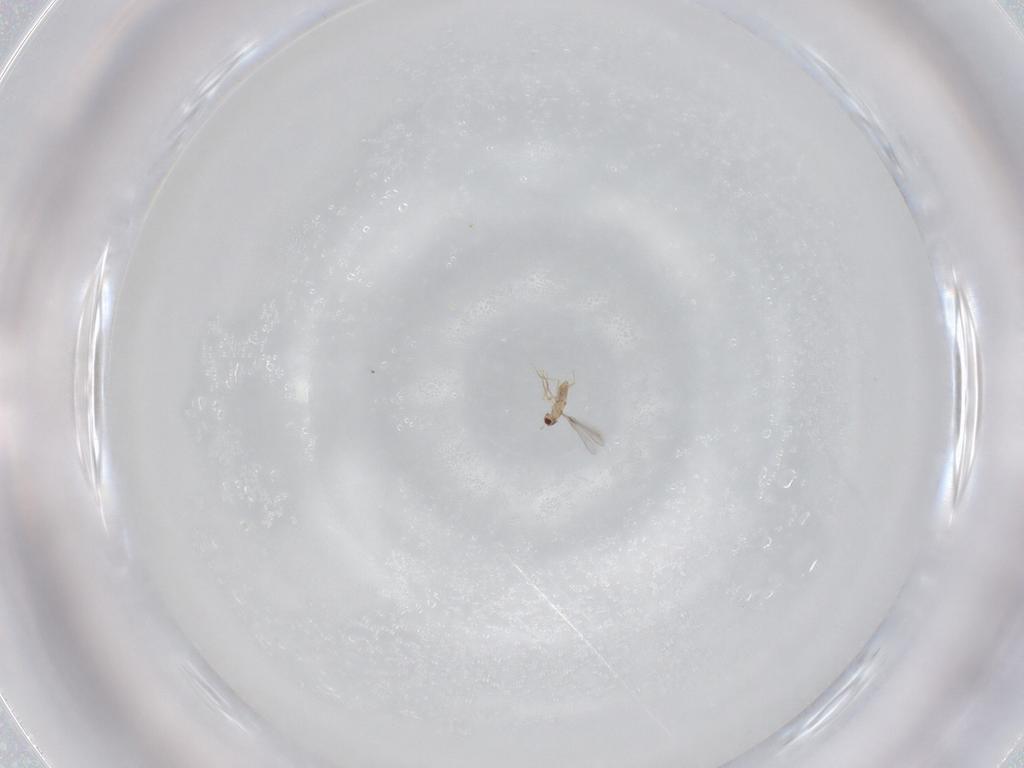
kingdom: Animalia
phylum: Arthropoda
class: Insecta
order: Hymenoptera
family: Mymaridae
